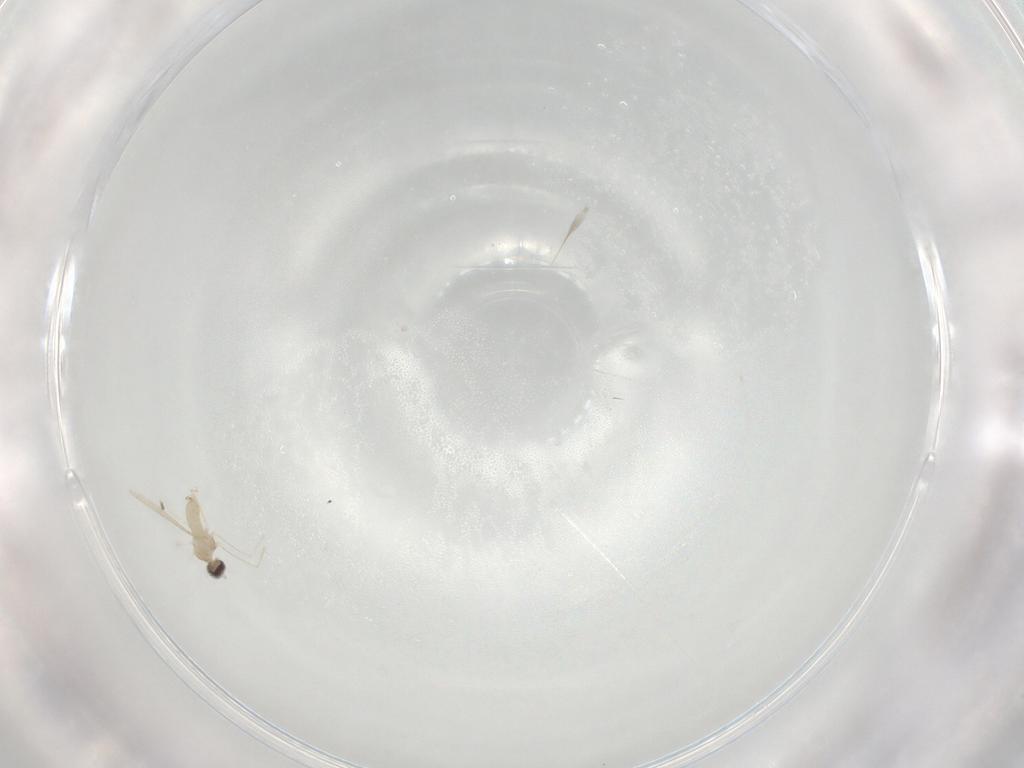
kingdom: Animalia
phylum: Arthropoda
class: Insecta
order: Diptera
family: Cecidomyiidae
